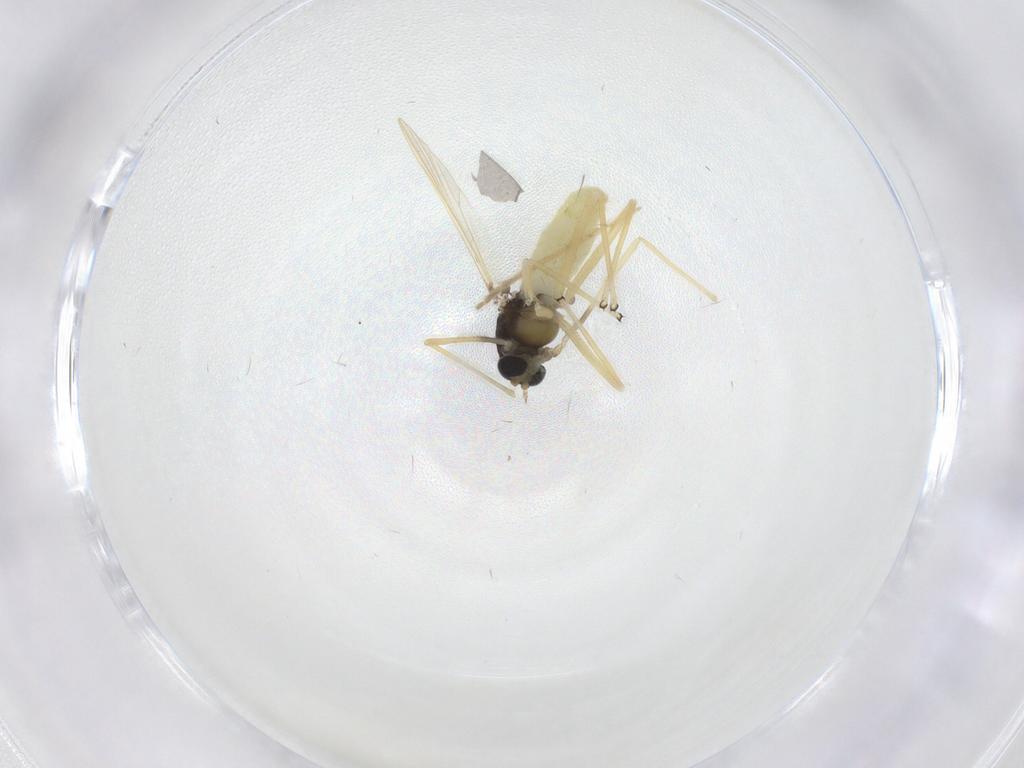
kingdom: Animalia
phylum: Arthropoda
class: Insecta
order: Diptera
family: Chironomidae
